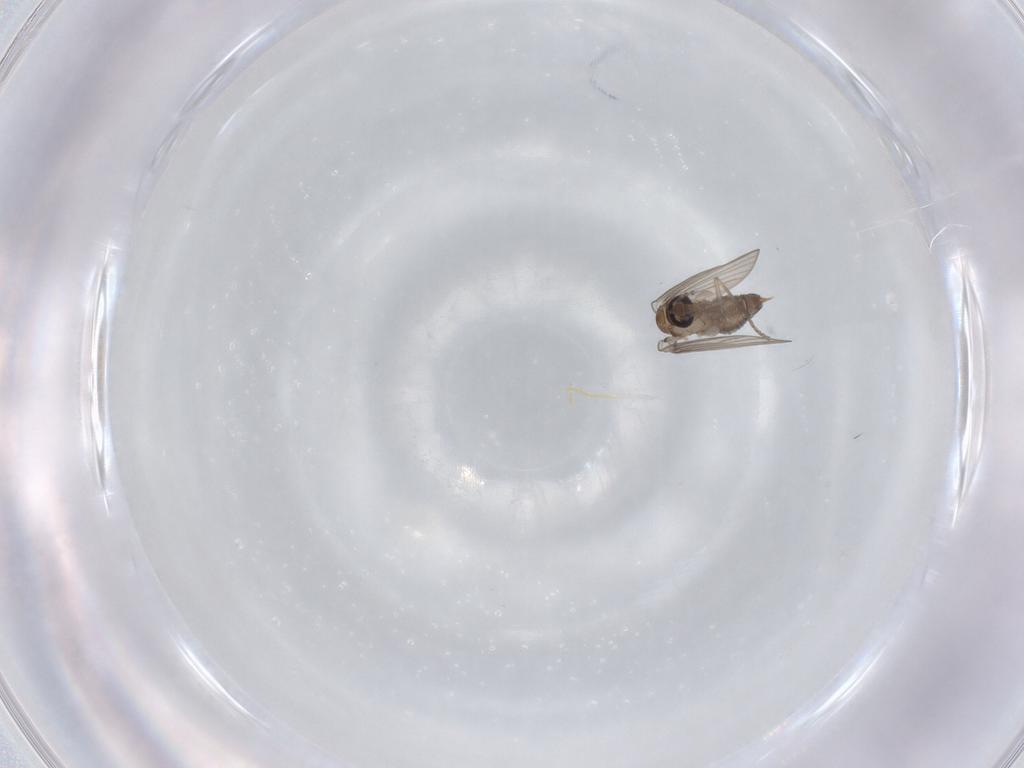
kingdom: Animalia
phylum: Arthropoda
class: Insecta
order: Diptera
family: Psychodidae
